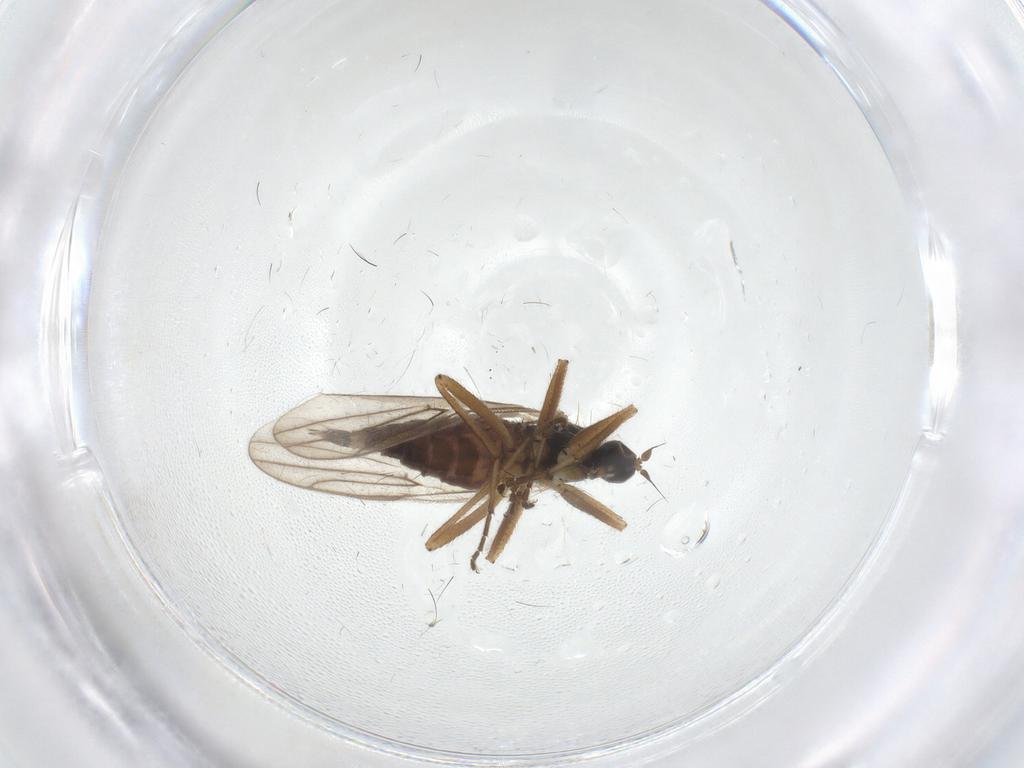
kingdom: Animalia
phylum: Arthropoda
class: Insecta
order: Diptera
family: Hybotidae
